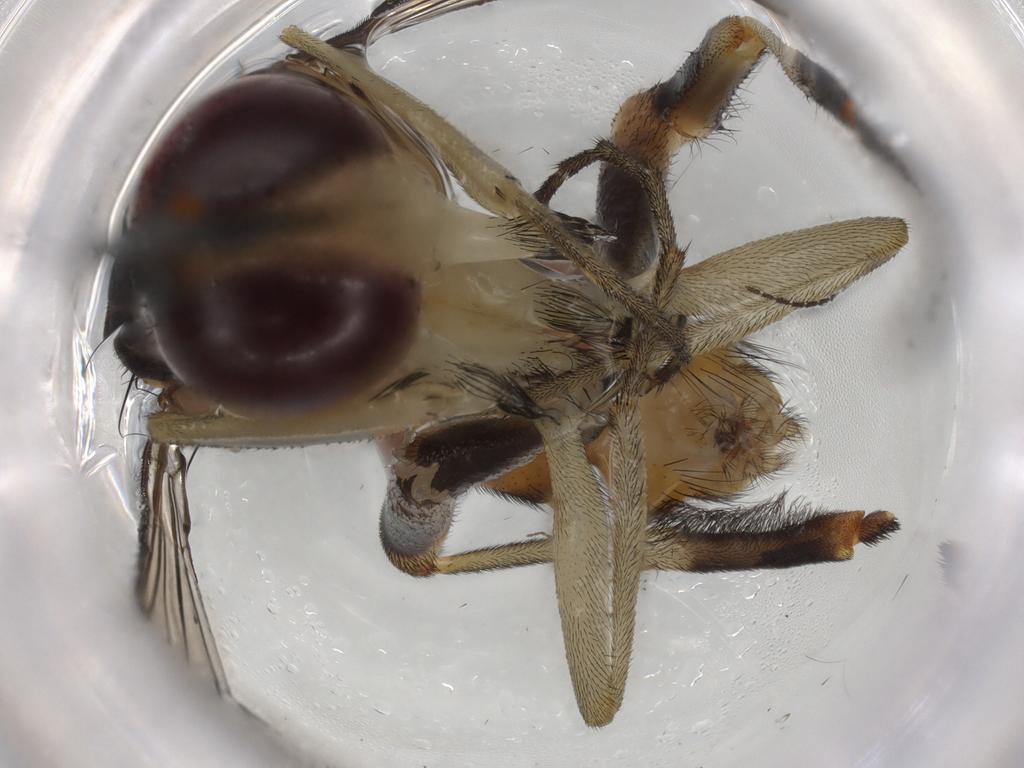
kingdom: Animalia
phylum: Arthropoda
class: Insecta
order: Diptera
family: Conopidae
